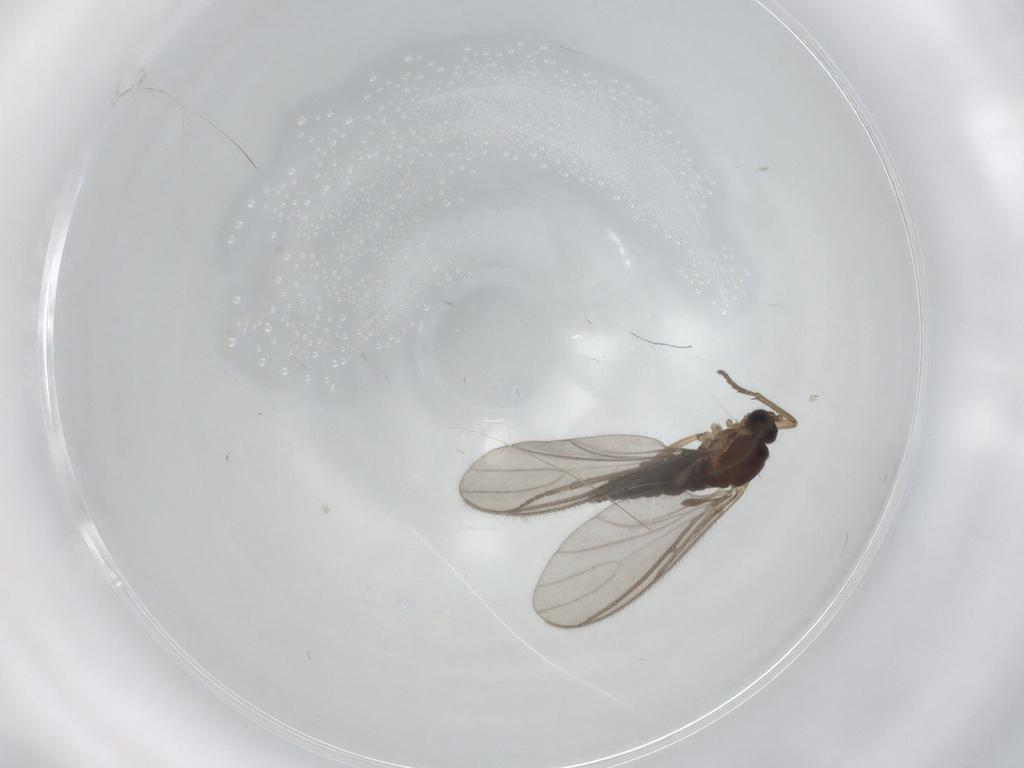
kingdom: Animalia
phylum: Arthropoda
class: Insecta
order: Diptera
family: Sciaridae
